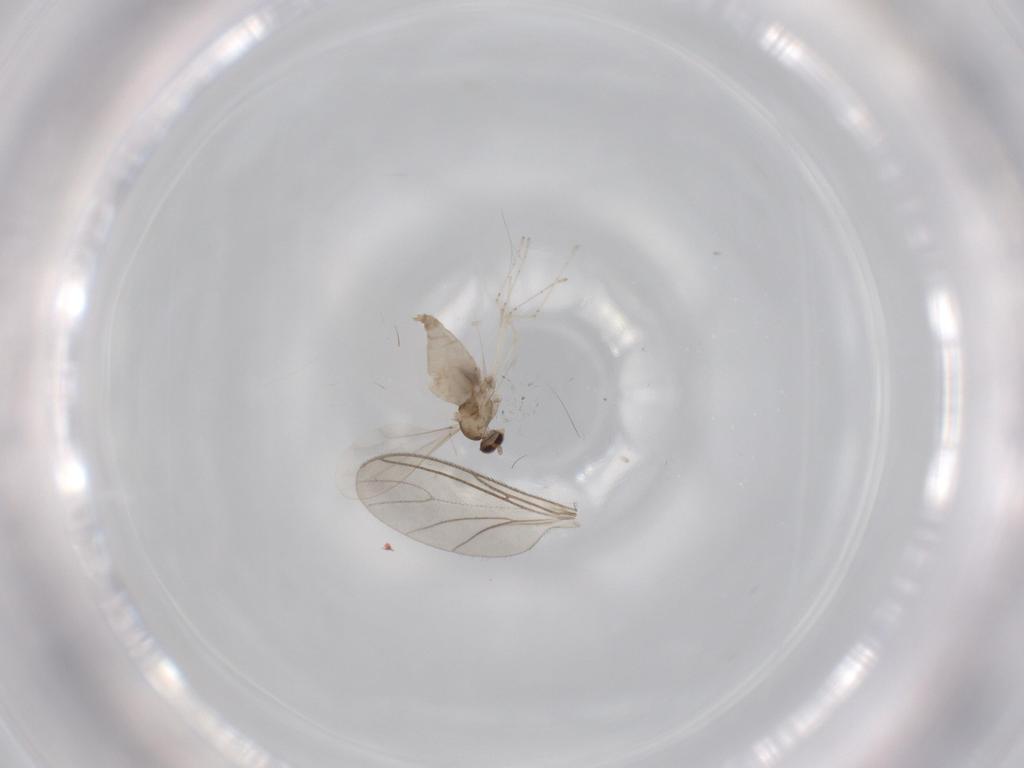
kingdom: Animalia
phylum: Arthropoda
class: Insecta
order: Diptera
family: Cecidomyiidae
